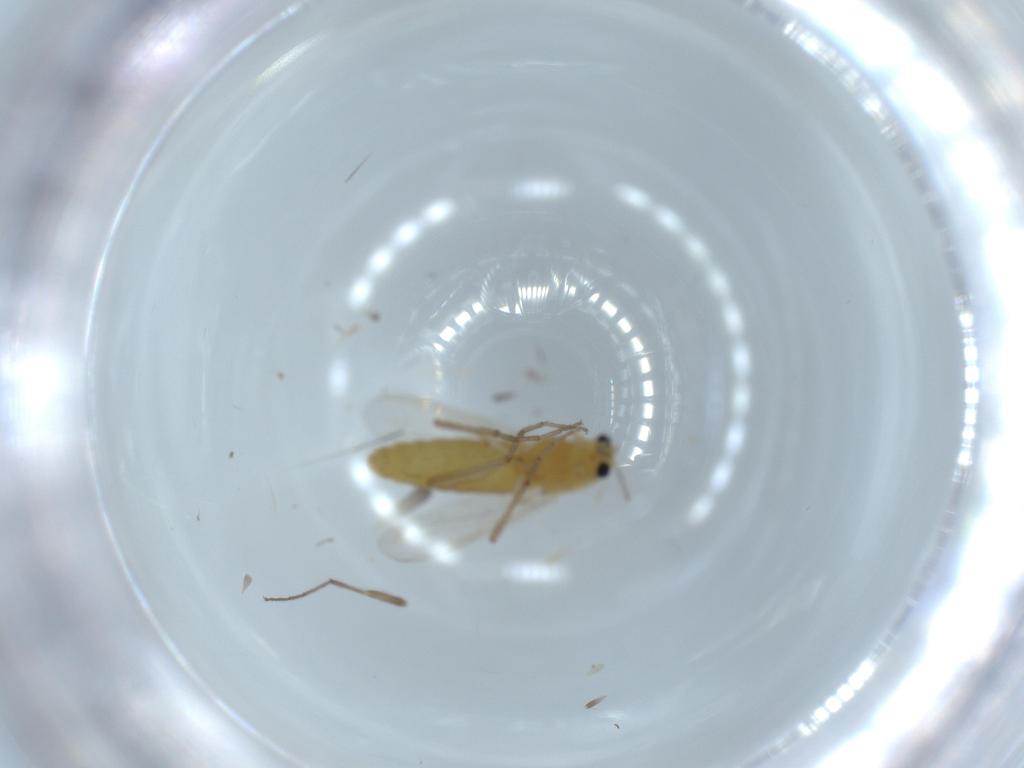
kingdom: Animalia
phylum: Arthropoda
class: Insecta
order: Diptera
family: Chironomidae
